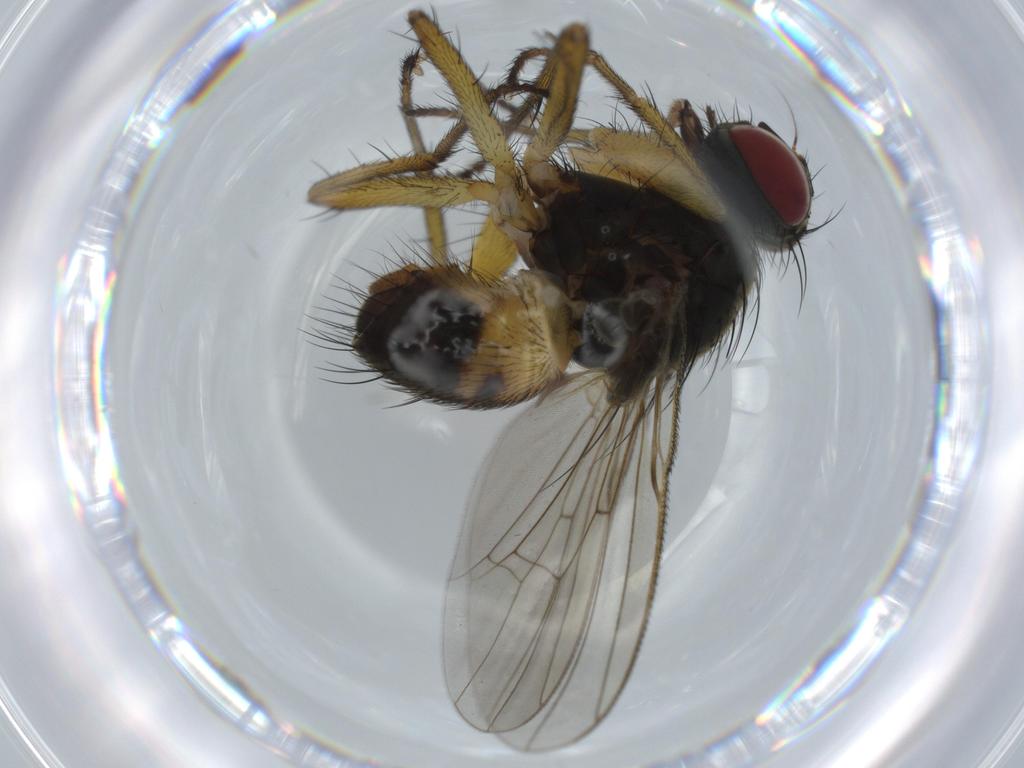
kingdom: Animalia
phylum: Arthropoda
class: Insecta
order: Diptera
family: Muscidae
